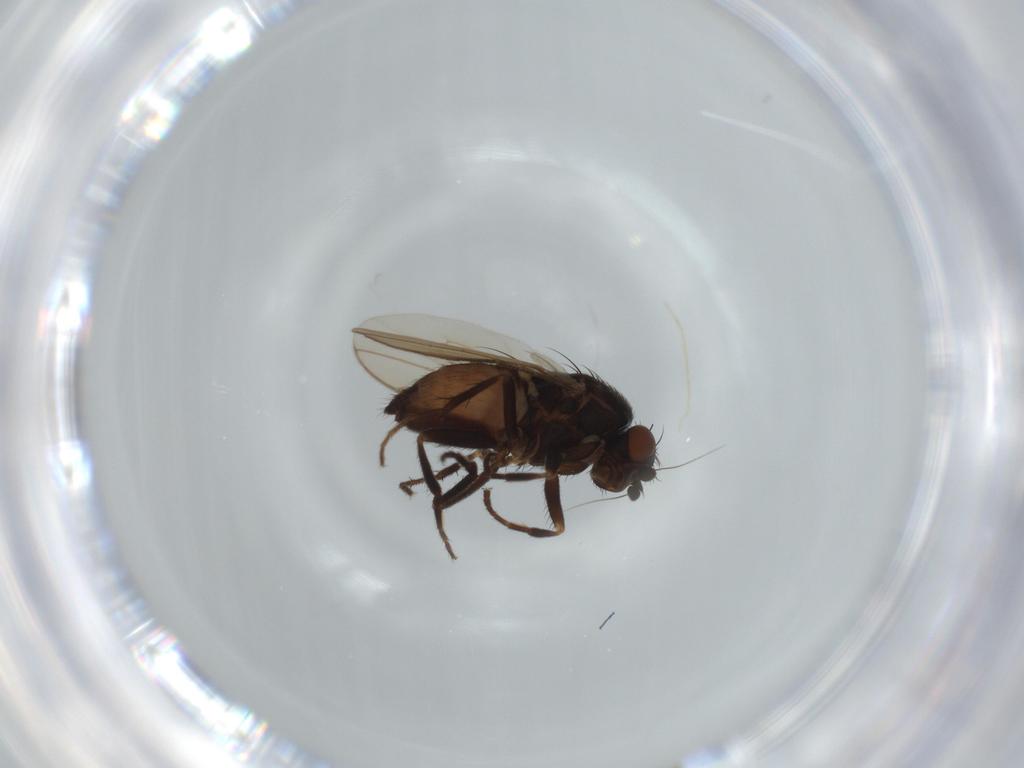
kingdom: Animalia
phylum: Arthropoda
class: Insecta
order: Diptera
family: Sphaeroceridae
